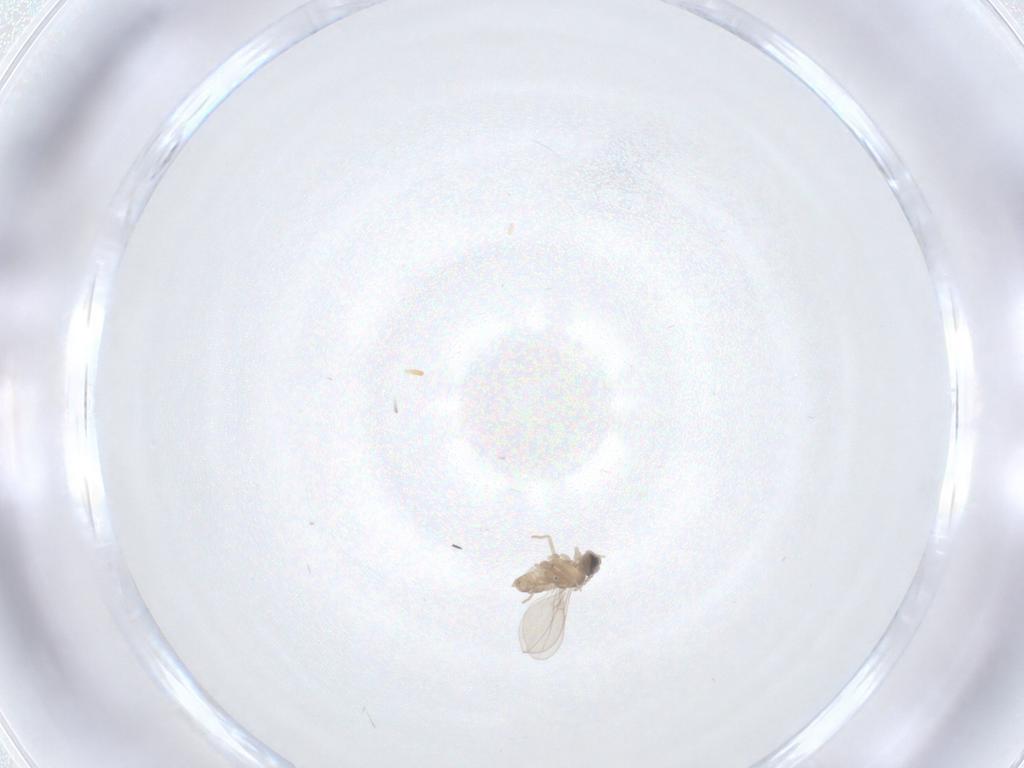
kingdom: Animalia
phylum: Arthropoda
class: Insecta
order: Diptera
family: Cecidomyiidae
